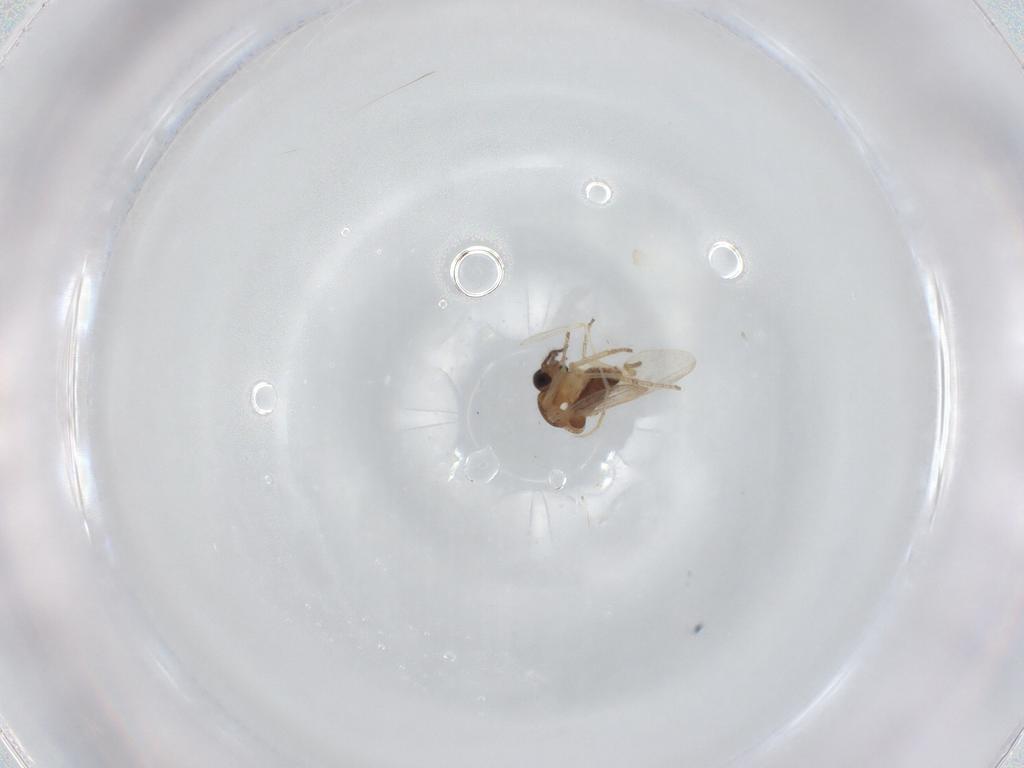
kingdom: Animalia
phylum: Arthropoda
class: Insecta
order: Diptera
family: Ceratopogonidae
